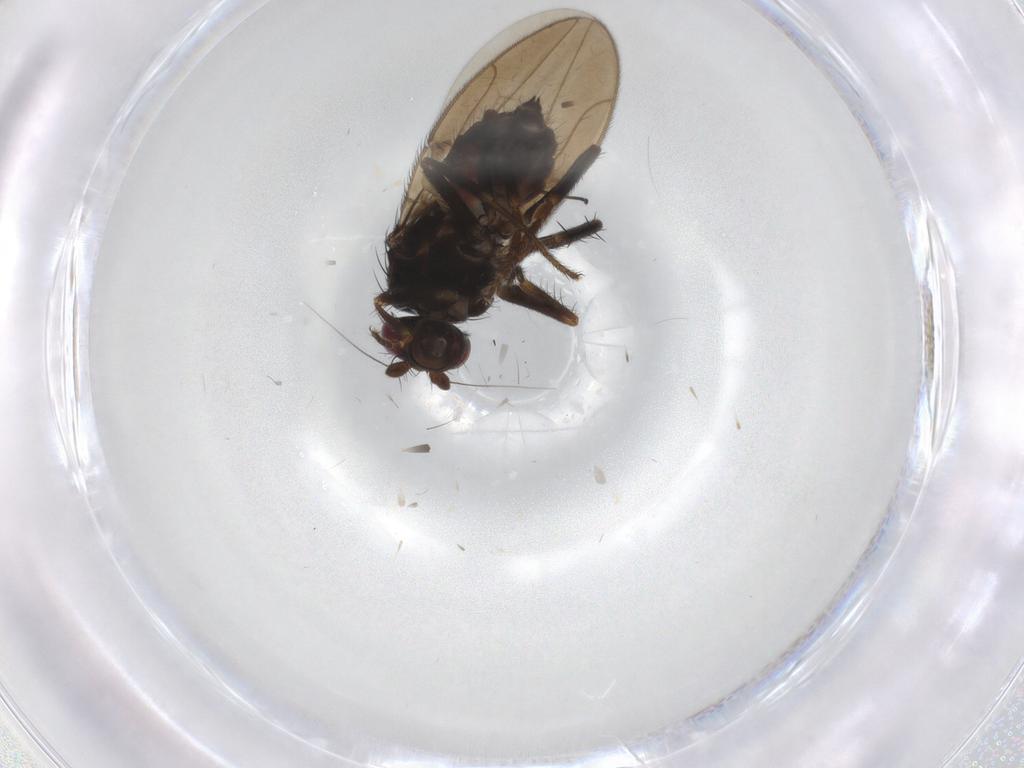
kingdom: Animalia
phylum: Arthropoda
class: Insecta
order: Diptera
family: Sphaeroceridae
